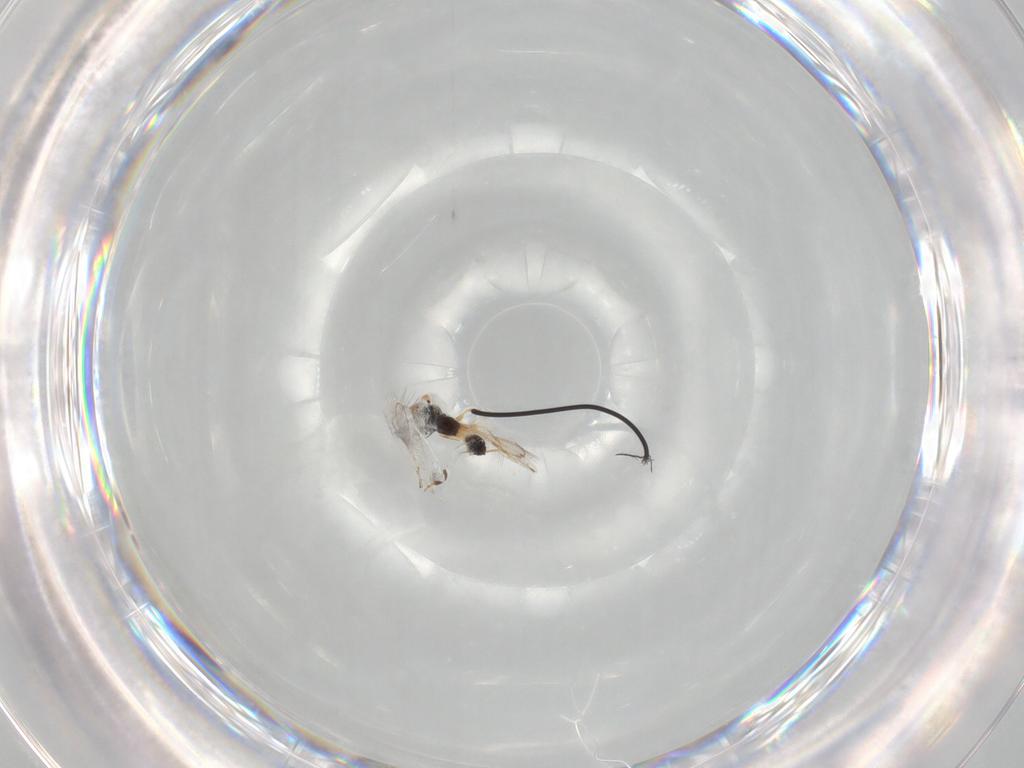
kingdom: Animalia
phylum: Arthropoda
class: Insecta
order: Hymenoptera
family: Mymaridae
